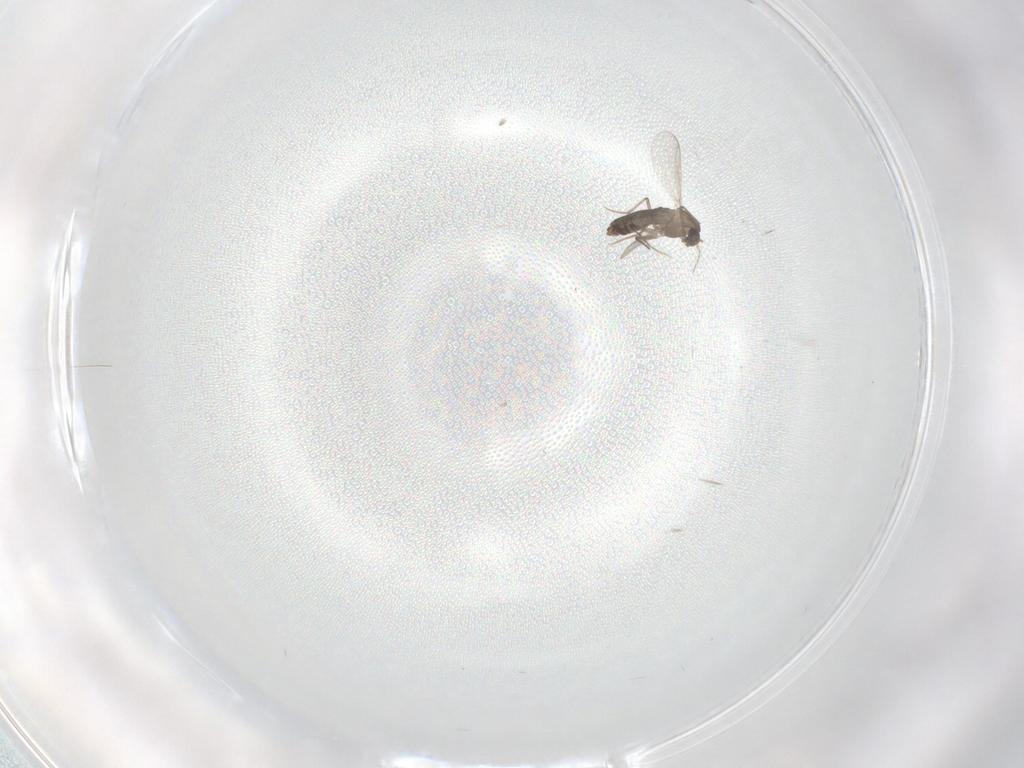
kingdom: Animalia
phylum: Arthropoda
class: Insecta
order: Diptera
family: Chironomidae
